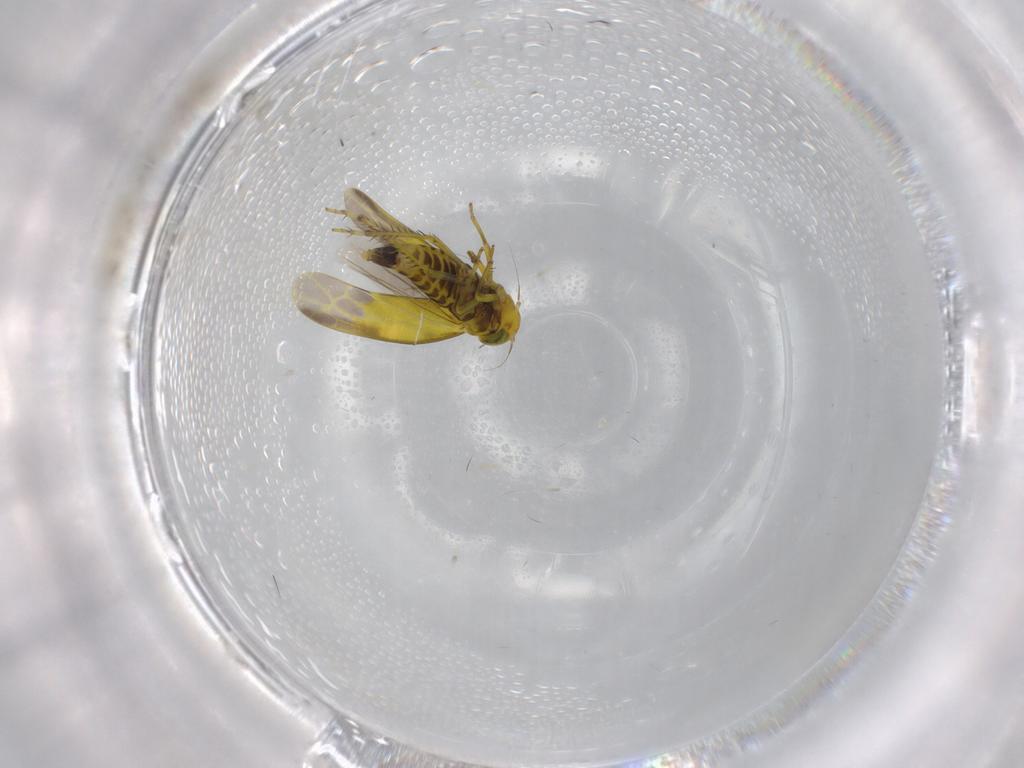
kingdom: Animalia
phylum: Arthropoda
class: Insecta
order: Hemiptera
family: Cicadellidae
